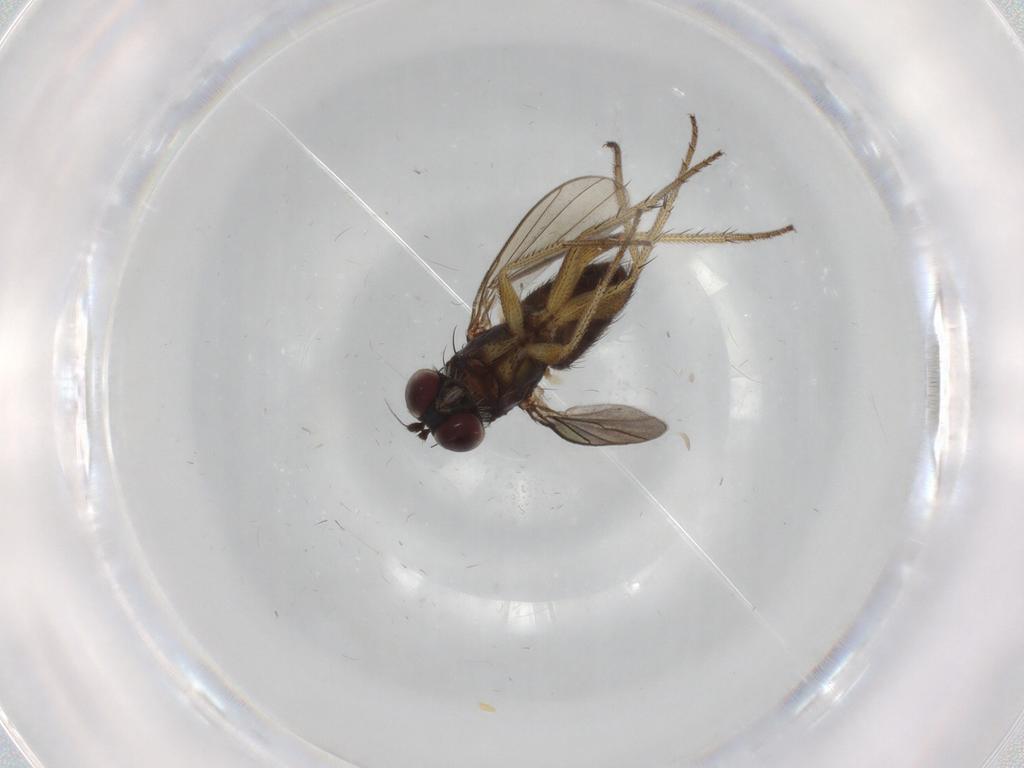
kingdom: Animalia
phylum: Arthropoda
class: Insecta
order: Diptera
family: Dolichopodidae
